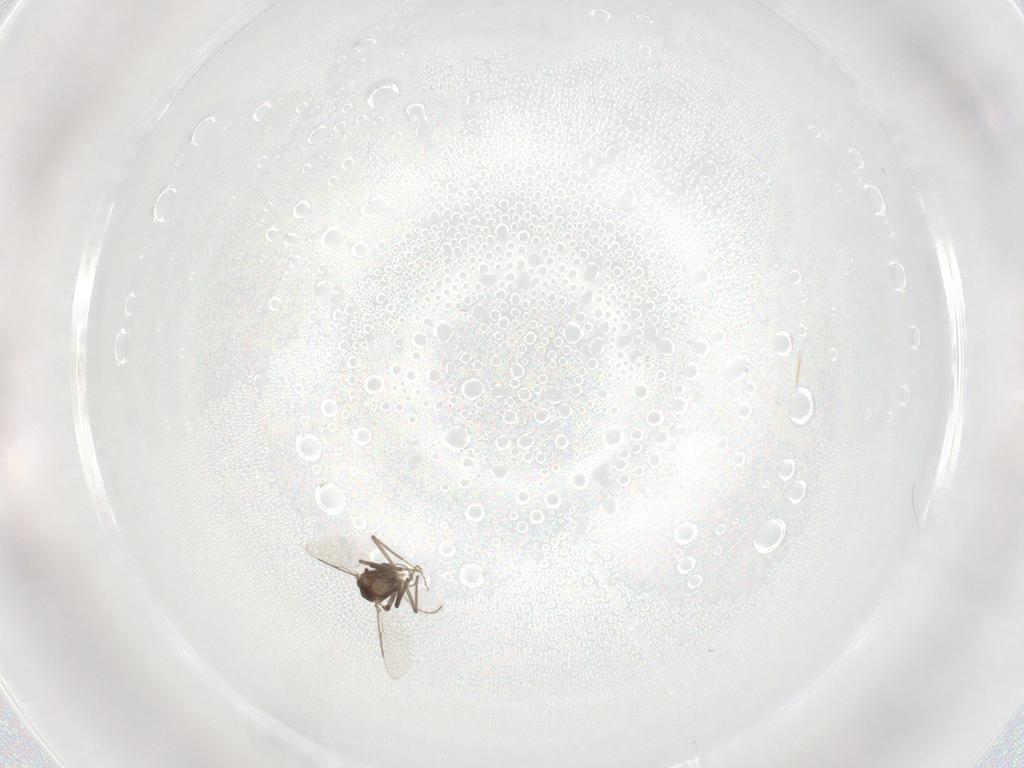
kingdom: Animalia
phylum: Arthropoda
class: Insecta
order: Diptera
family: Ceratopogonidae
